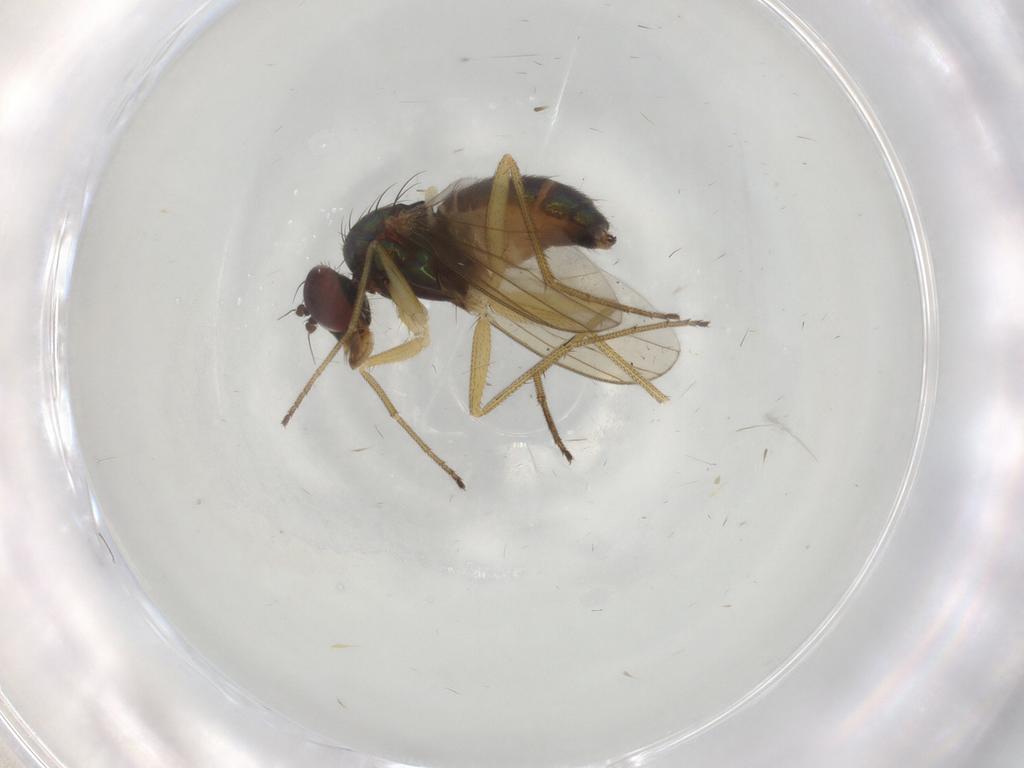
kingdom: Animalia
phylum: Arthropoda
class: Insecta
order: Diptera
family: Dolichopodidae
